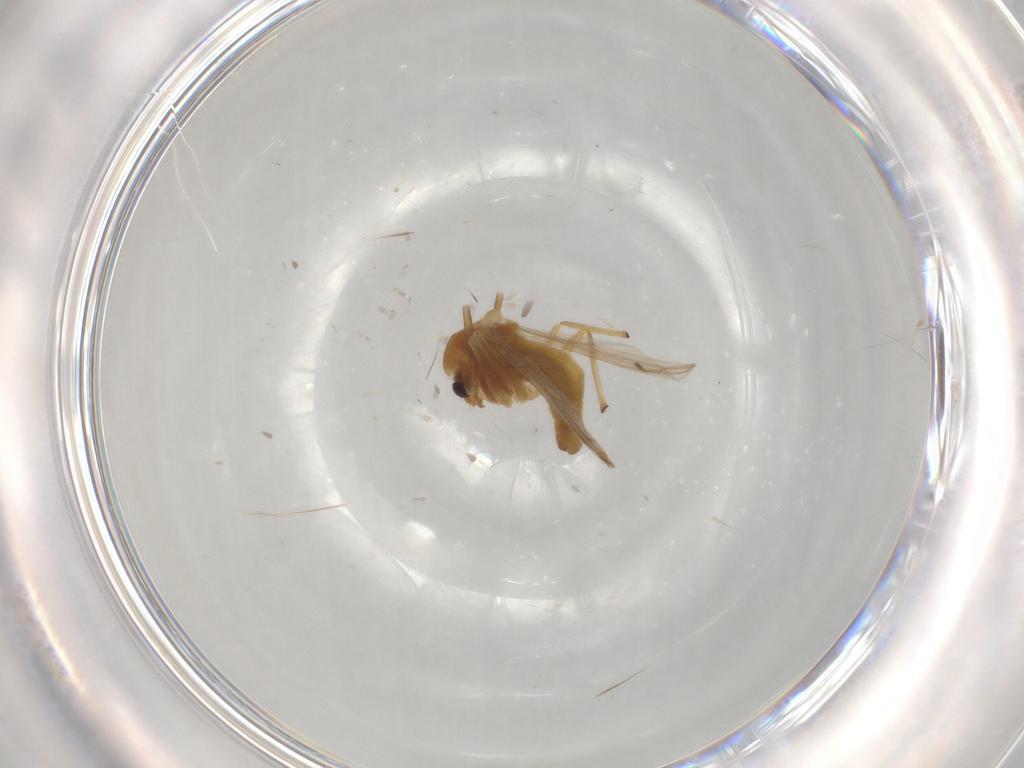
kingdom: Animalia
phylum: Arthropoda
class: Insecta
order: Diptera
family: Chironomidae
